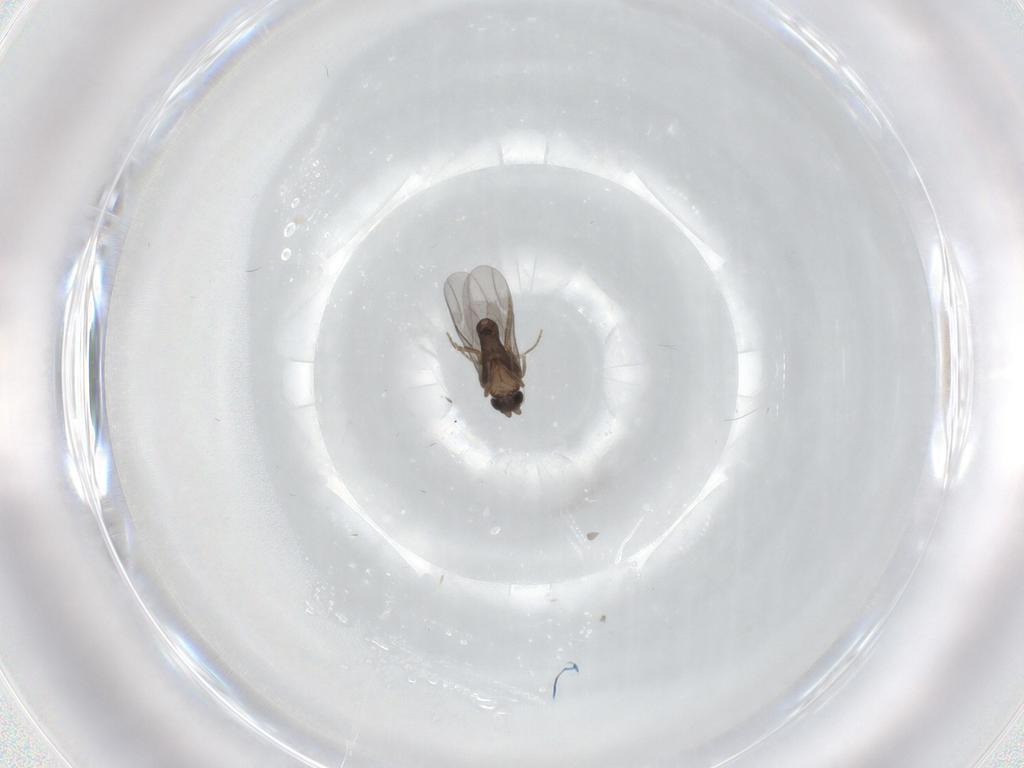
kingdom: Animalia
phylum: Arthropoda
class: Insecta
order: Diptera
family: Phoridae
